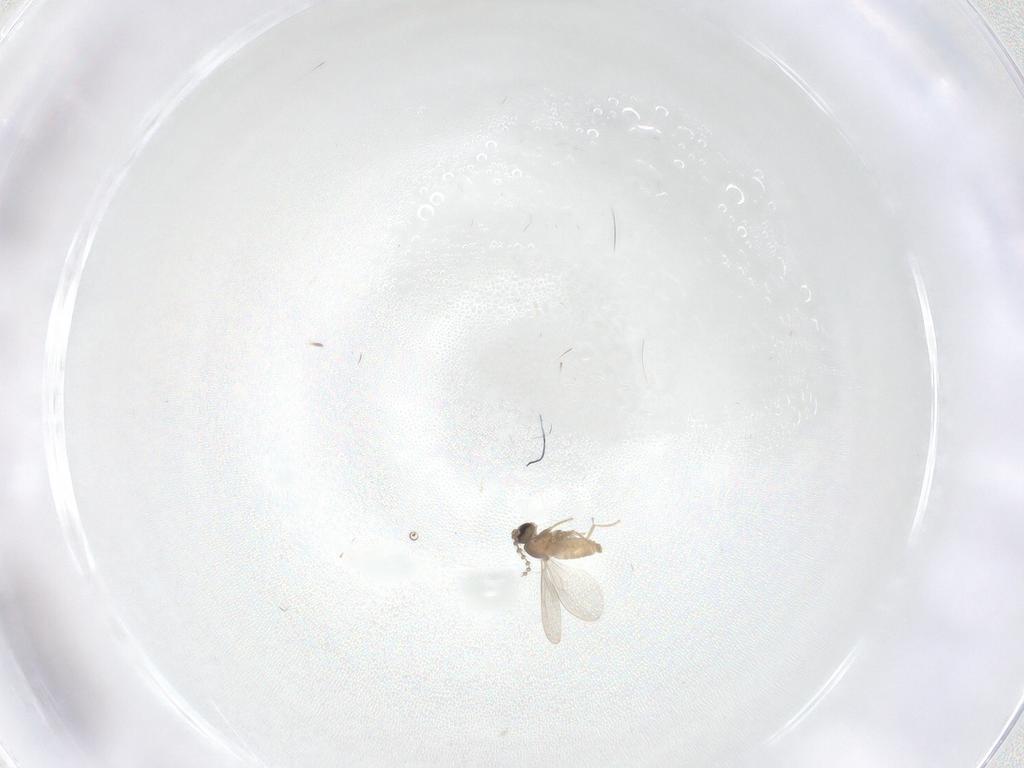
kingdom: Animalia
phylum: Arthropoda
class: Insecta
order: Diptera
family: Cecidomyiidae
